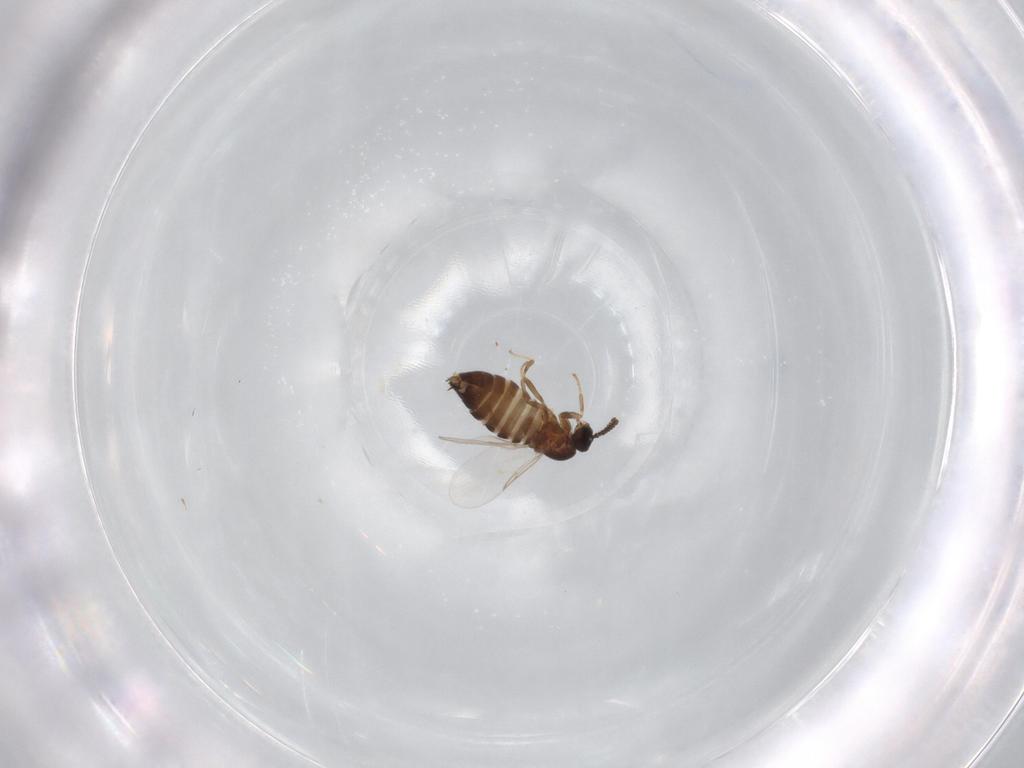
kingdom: Animalia
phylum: Arthropoda
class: Insecta
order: Diptera
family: Scatopsidae
